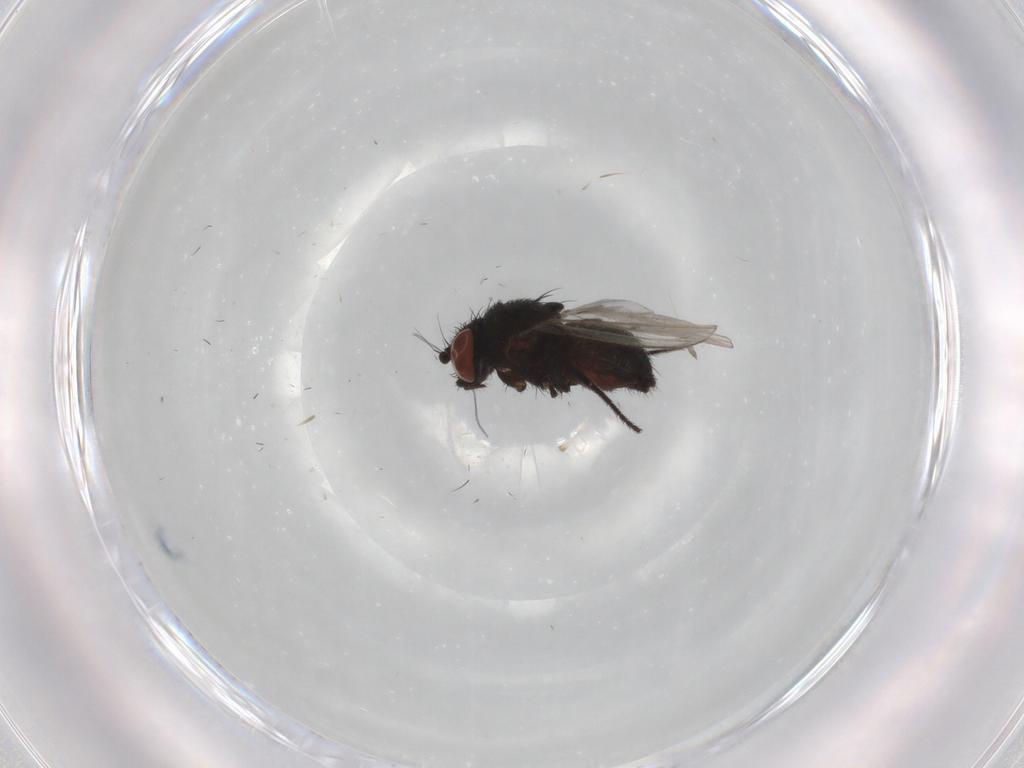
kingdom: Animalia
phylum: Arthropoda
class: Insecta
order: Diptera
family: Milichiidae
